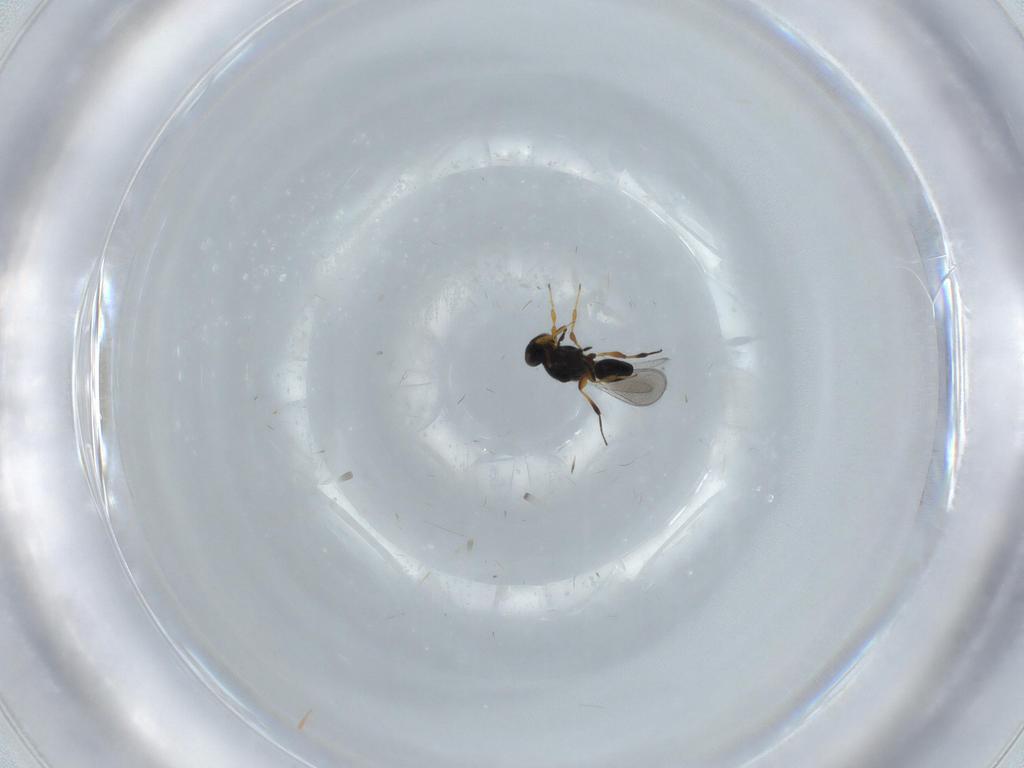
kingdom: Animalia
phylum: Arthropoda
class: Insecta
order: Hymenoptera
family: Platygastridae
